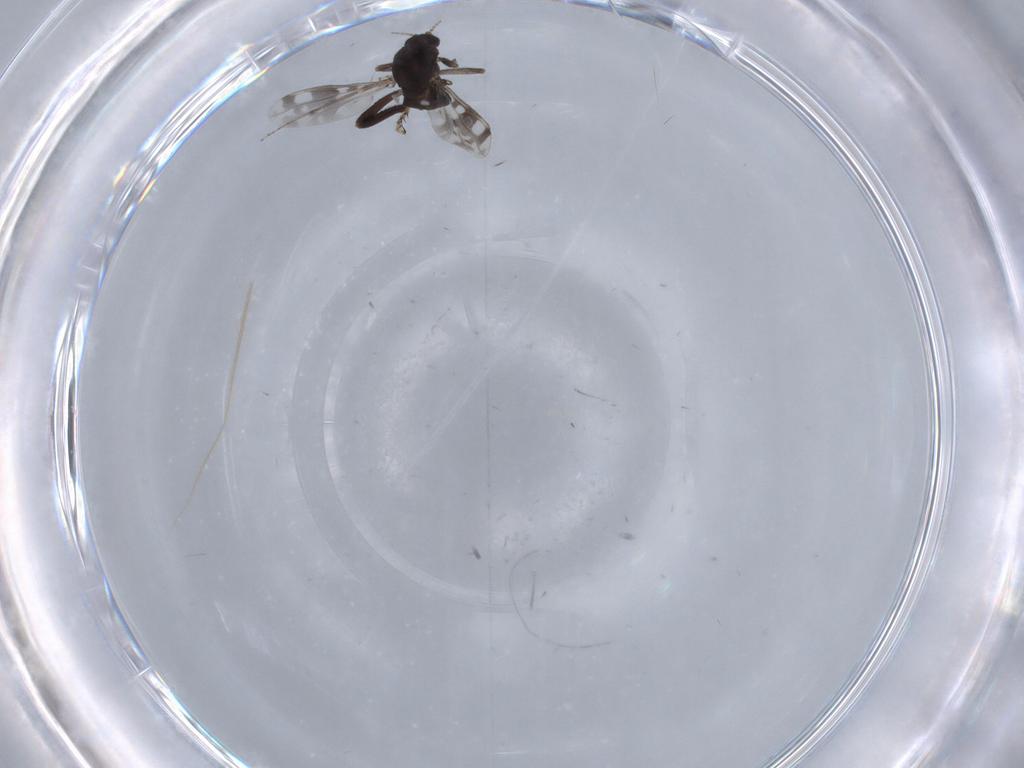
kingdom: Animalia
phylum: Arthropoda
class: Insecta
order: Diptera
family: Ceratopogonidae
